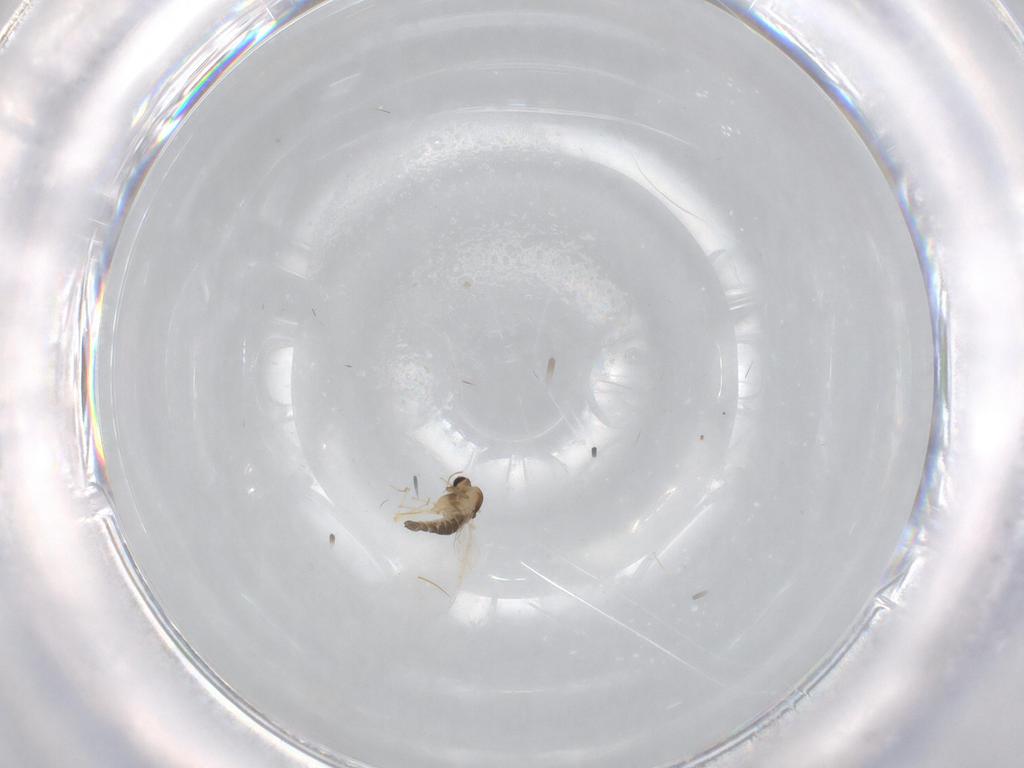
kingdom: Animalia
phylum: Arthropoda
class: Insecta
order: Diptera
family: Chironomidae
